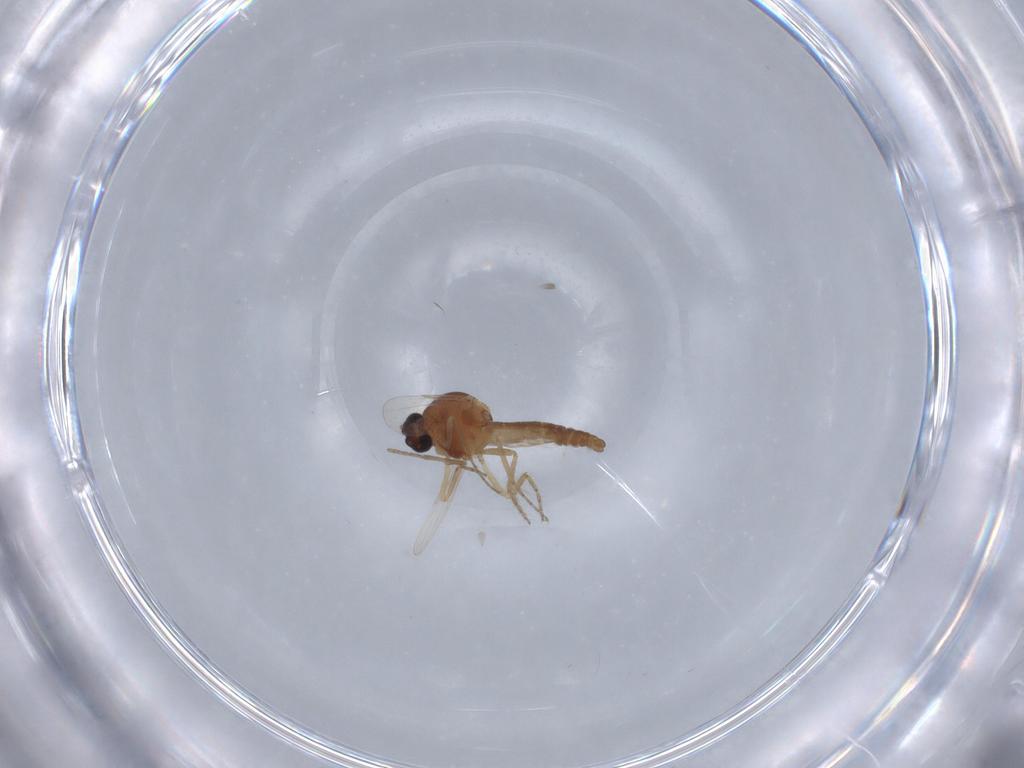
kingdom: Animalia
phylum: Arthropoda
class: Insecta
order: Diptera
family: Ceratopogonidae
